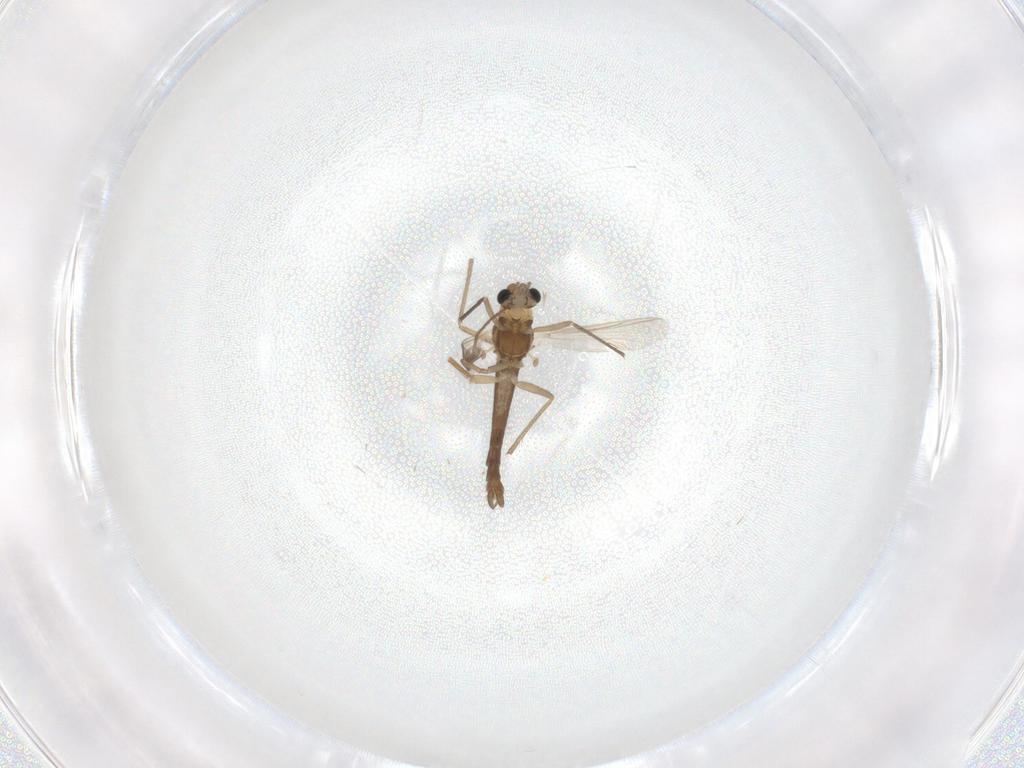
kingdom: Animalia
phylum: Arthropoda
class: Insecta
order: Diptera
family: Chironomidae
